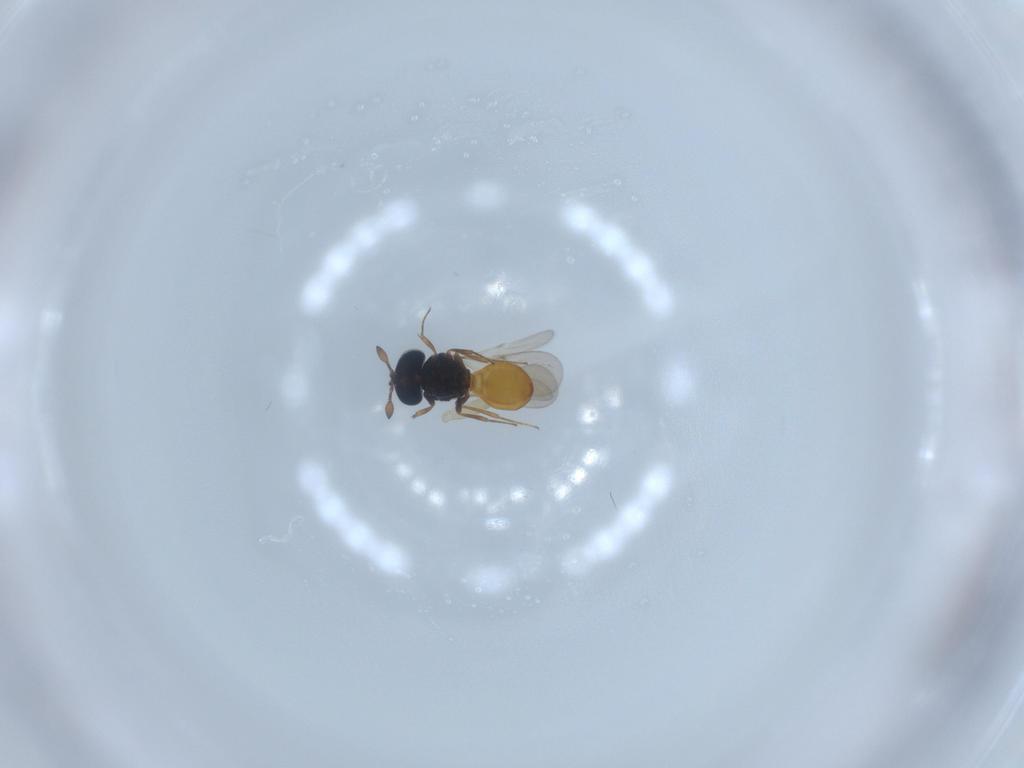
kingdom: Animalia
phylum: Arthropoda
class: Insecta
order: Hymenoptera
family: Scelionidae
